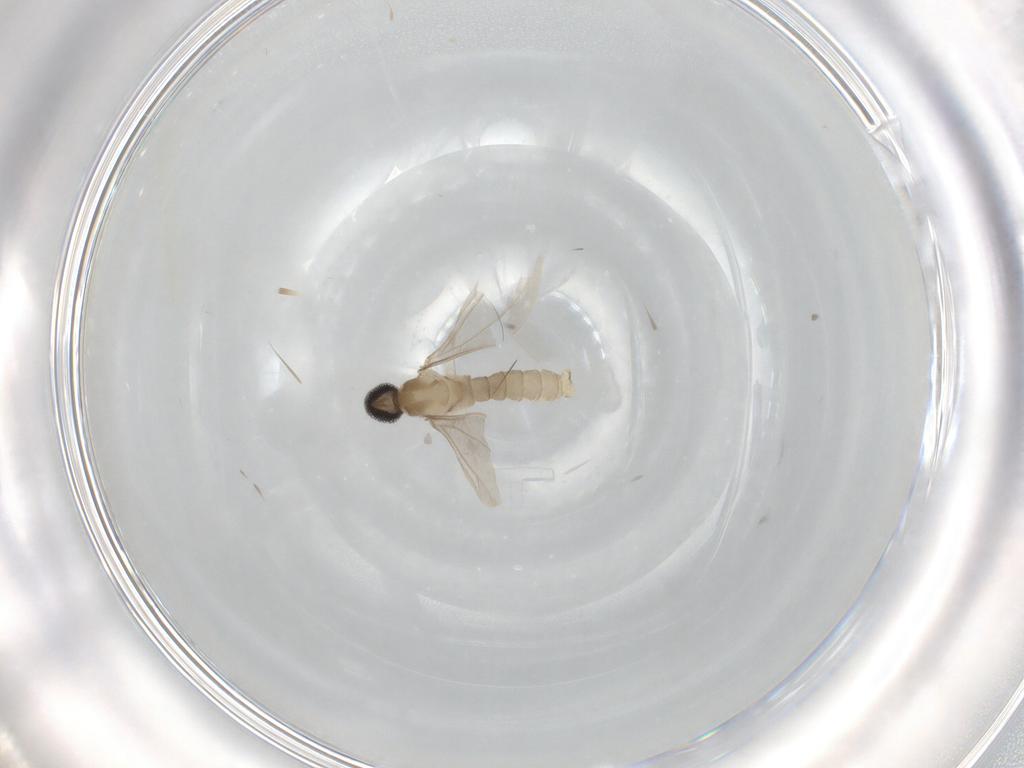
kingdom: Animalia
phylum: Arthropoda
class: Insecta
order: Diptera
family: Cecidomyiidae
